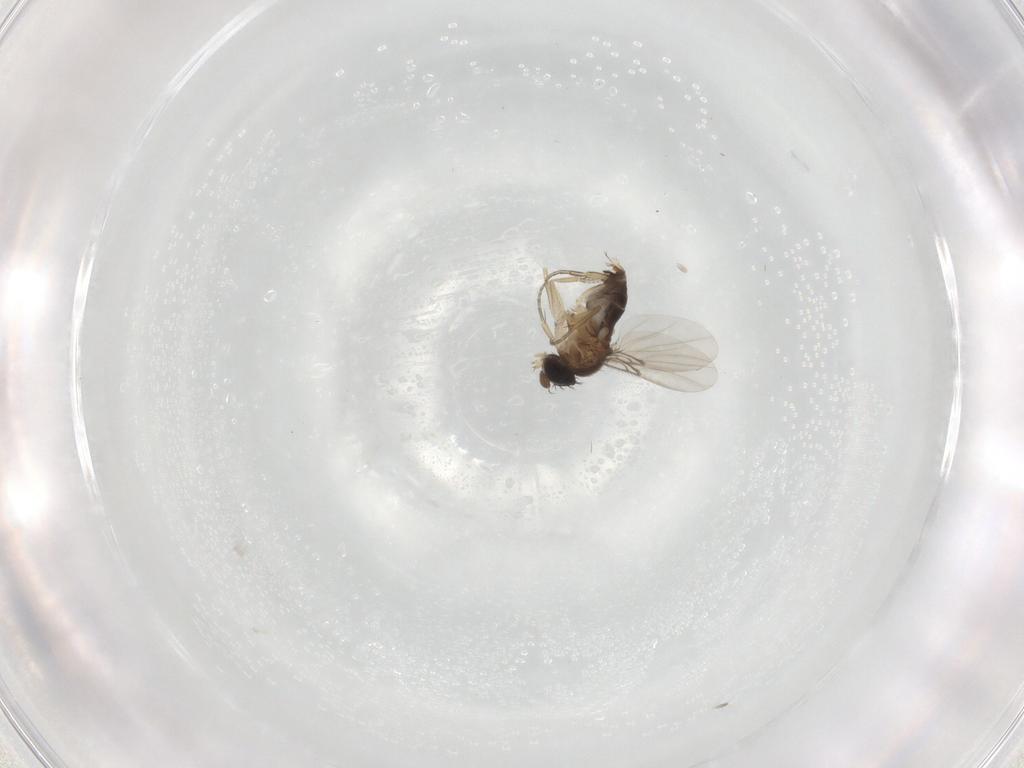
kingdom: Animalia
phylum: Arthropoda
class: Insecta
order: Diptera
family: Phoridae
